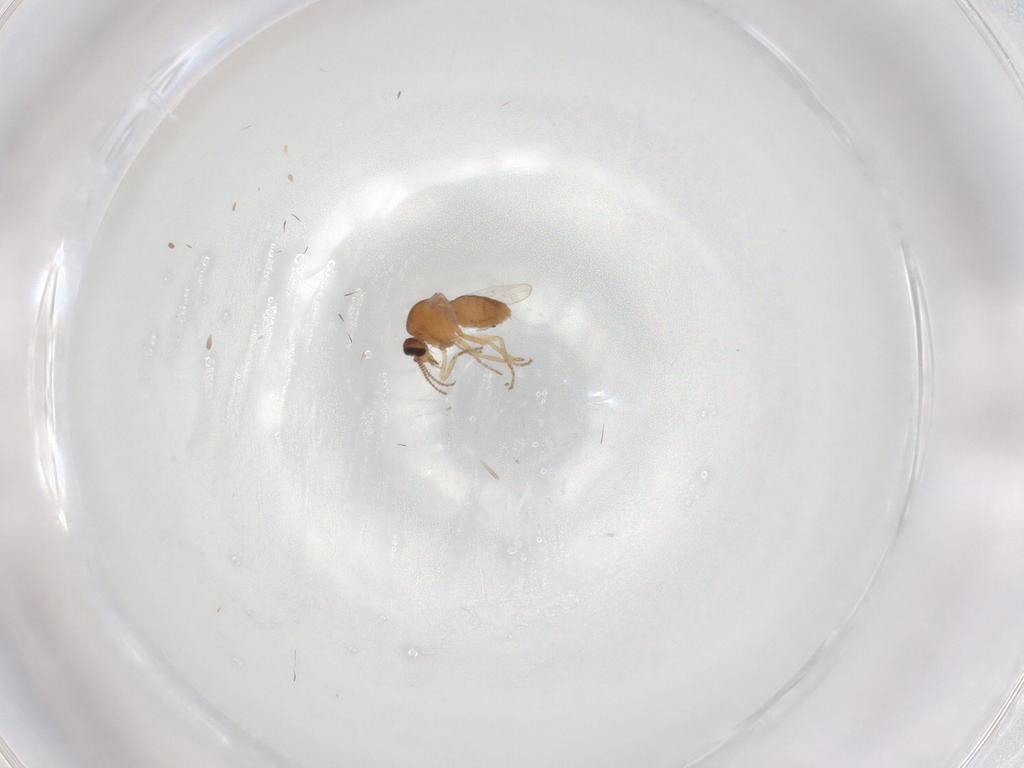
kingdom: Animalia
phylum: Arthropoda
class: Insecta
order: Diptera
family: Ceratopogonidae
